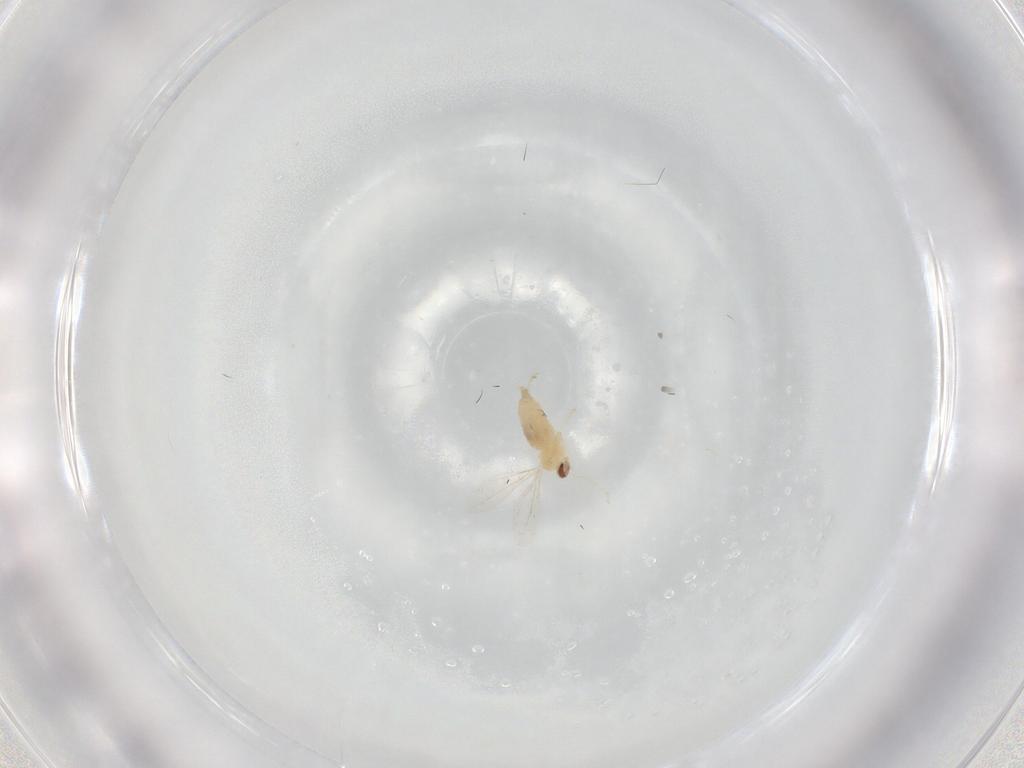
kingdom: Animalia
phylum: Arthropoda
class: Insecta
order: Diptera
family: Cecidomyiidae
